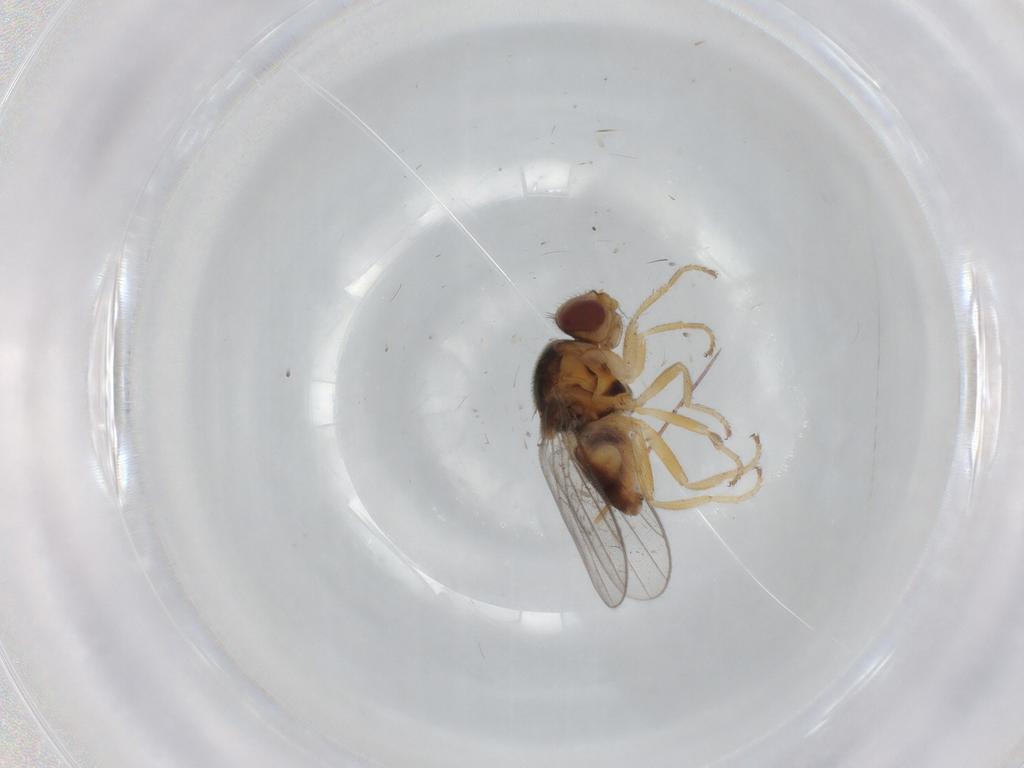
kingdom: Animalia
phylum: Arthropoda
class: Insecta
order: Diptera
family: Chloropidae
